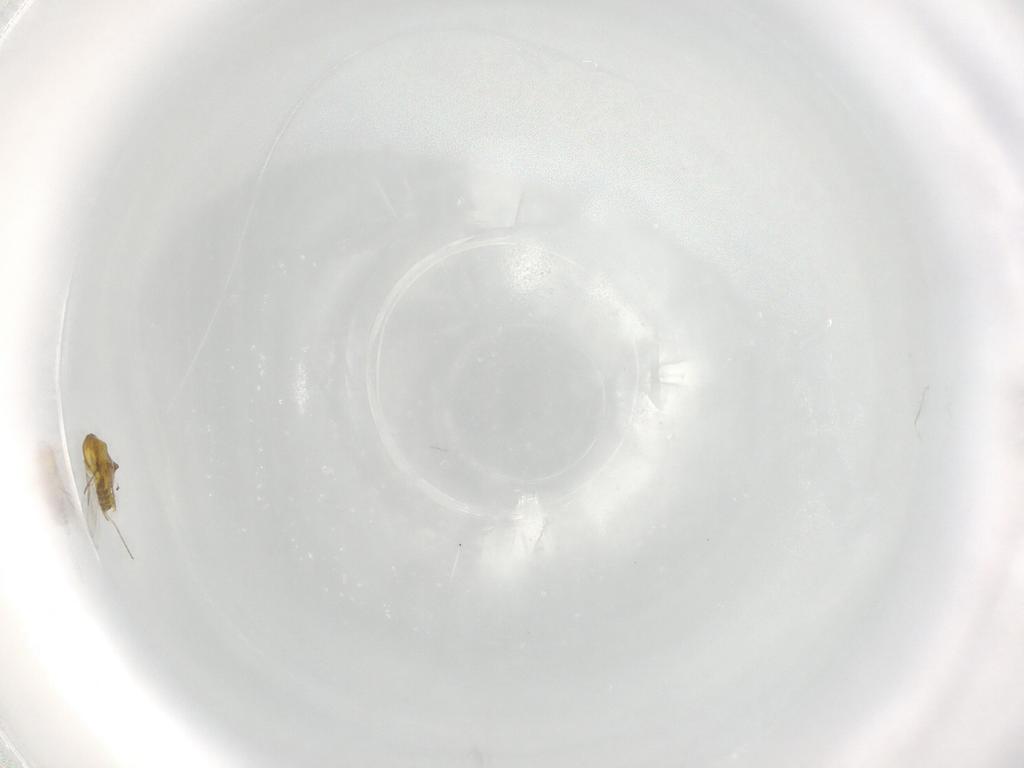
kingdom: Animalia
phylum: Arthropoda
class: Insecta
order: Diptera
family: Ceratopogonidae
